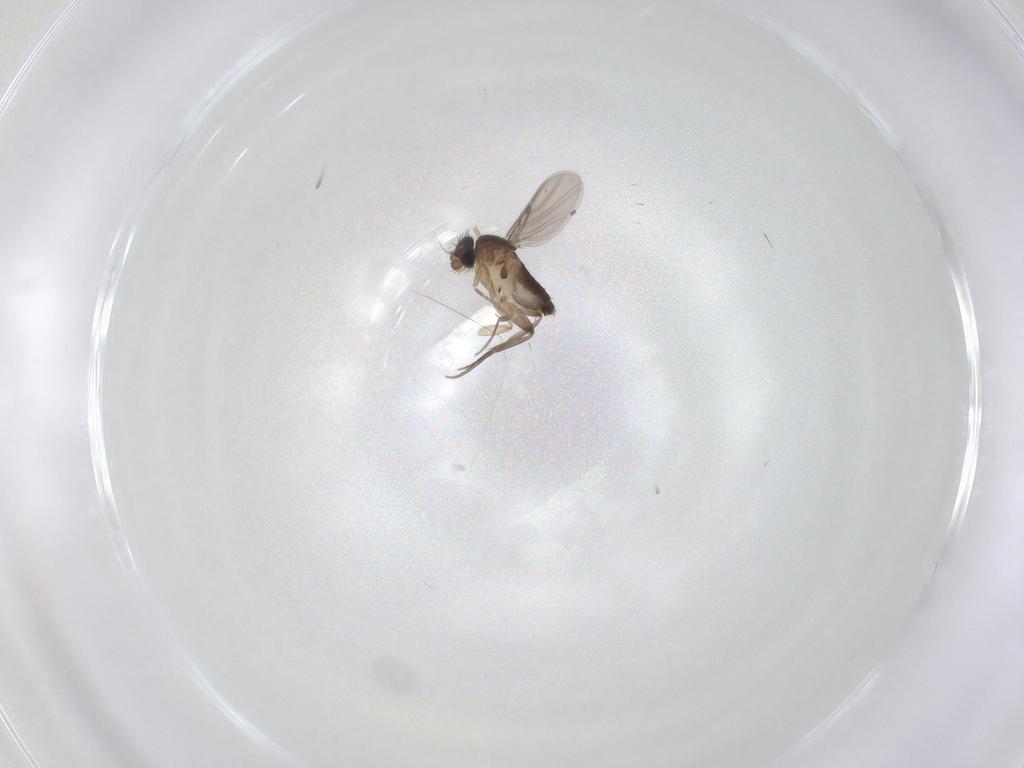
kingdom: Animalia
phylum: Arthropoda
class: Insecta
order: Diptera
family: Phoridae
